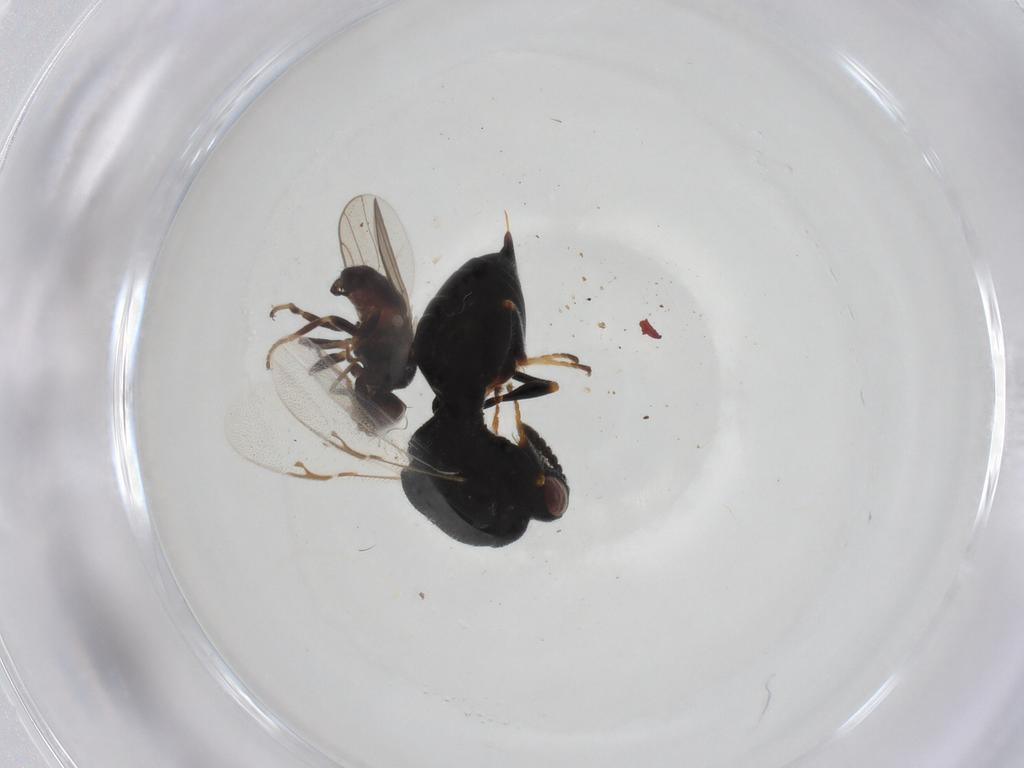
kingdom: Animalia
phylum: Arthropoda
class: Insecta
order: Diptera
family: Chloropidae
